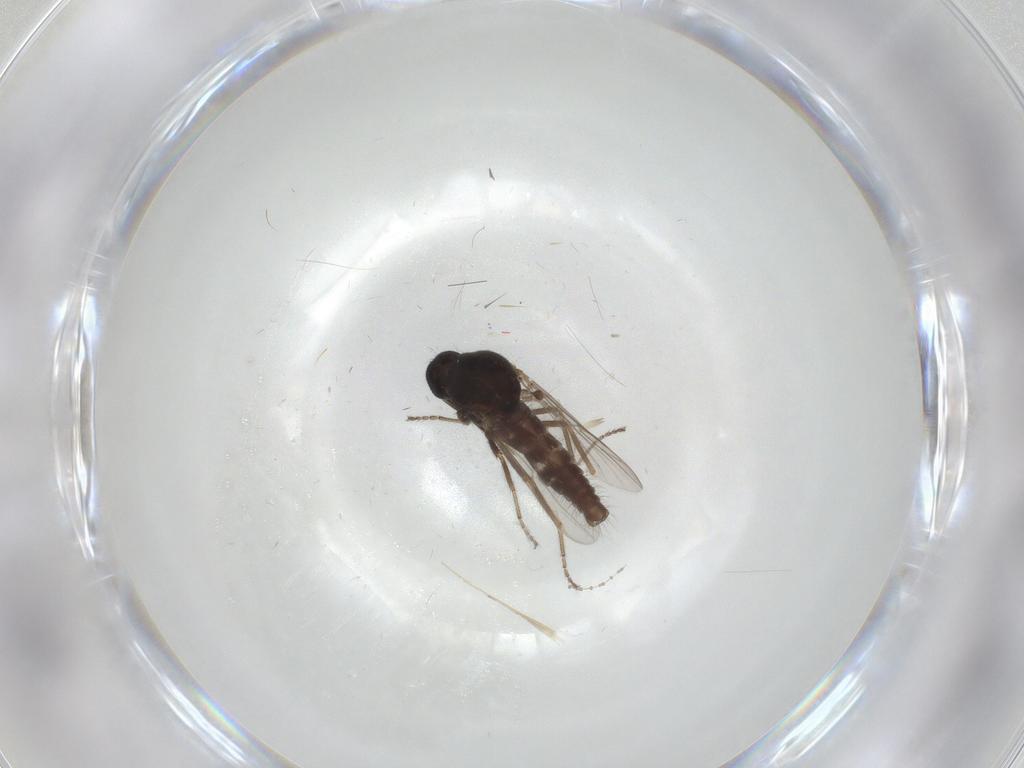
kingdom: Animalia
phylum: Arthropoda
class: Insecta
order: Diptera
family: Ceratopogonidae
